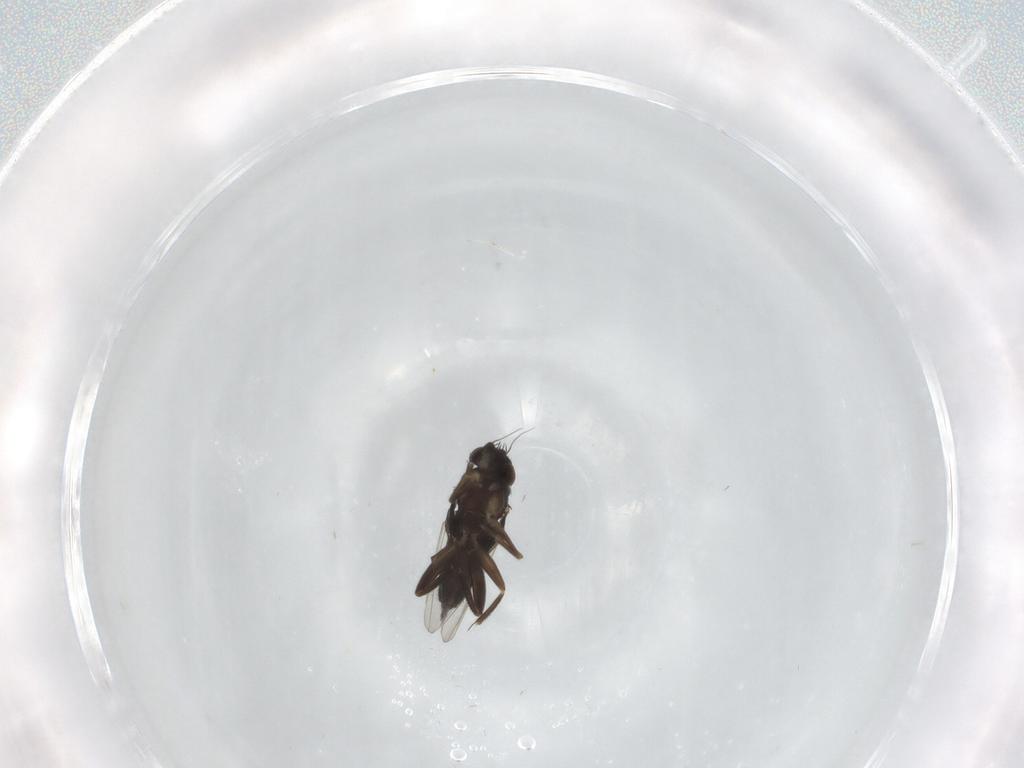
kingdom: Animalia
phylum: Arthropoda
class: Insecta
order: Diptera
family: Phoridae
